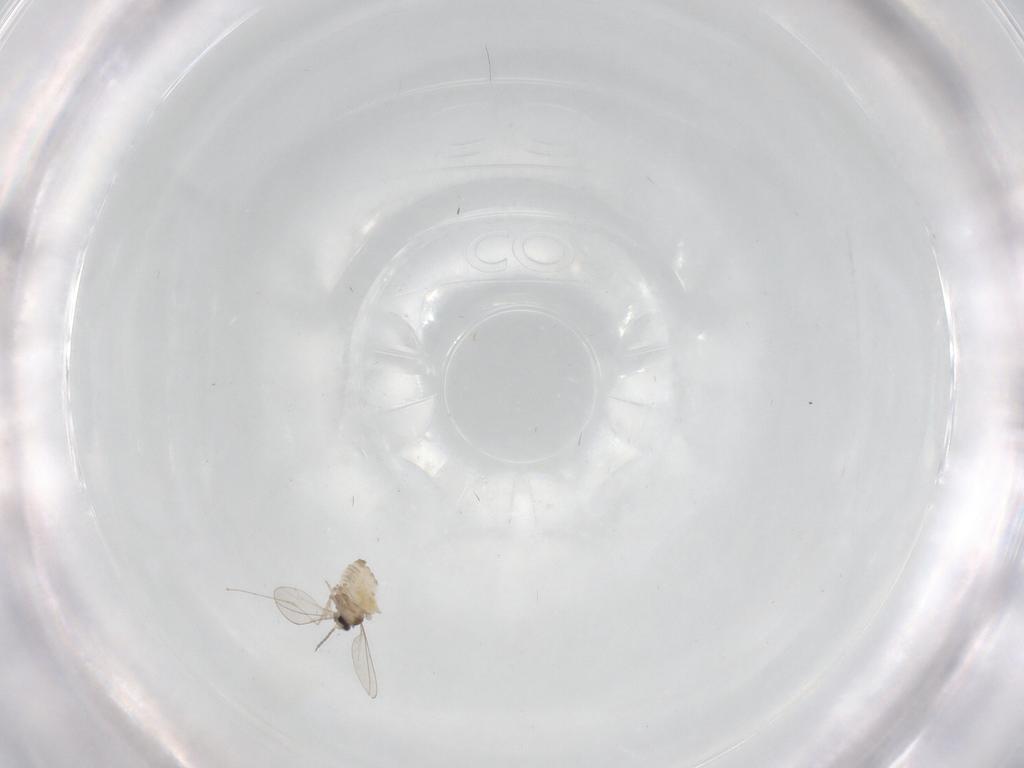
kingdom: Animalia
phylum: Arthropoda
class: Insecta
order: Diptera
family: Cecidomyiidae
